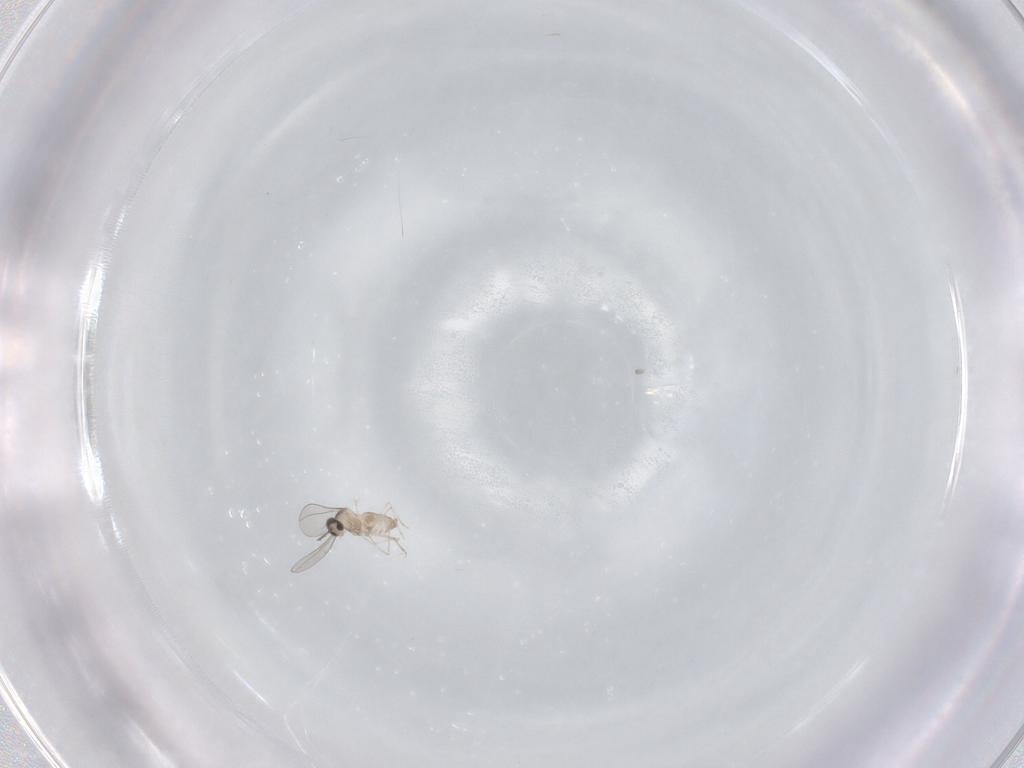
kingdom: Animalia
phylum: Arthropoda
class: Insecta
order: Diptera
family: Cecidomyiidae
